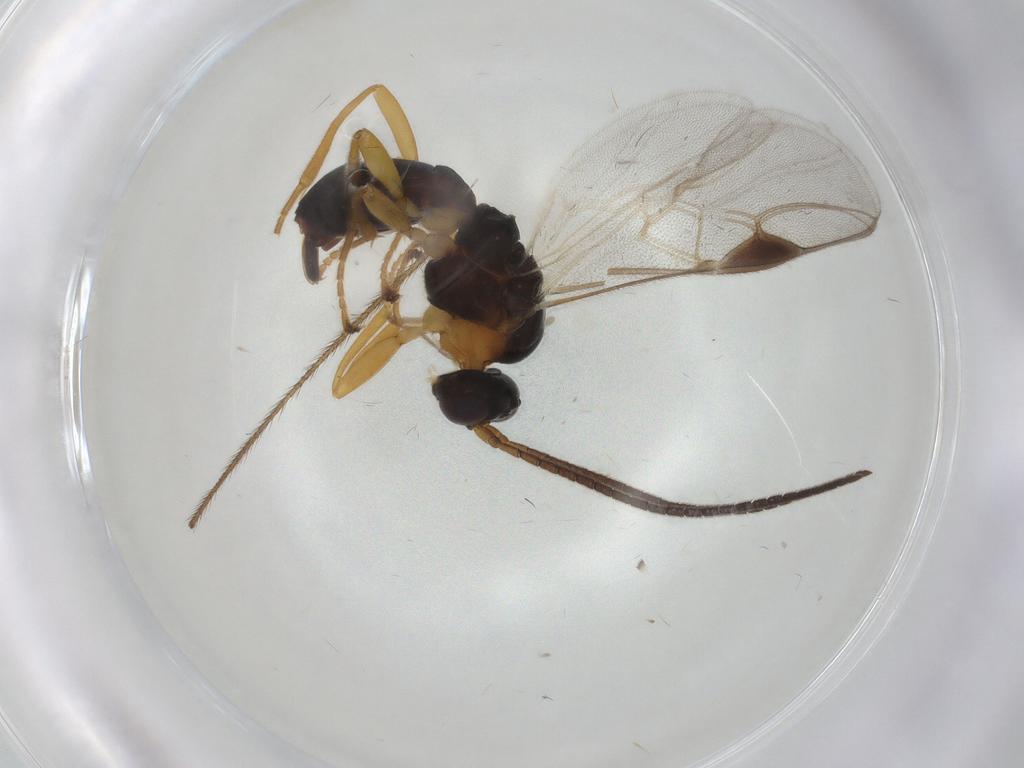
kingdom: Animalia
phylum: Arthropoda
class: Insecta
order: Hymenoptera
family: Braconidae
